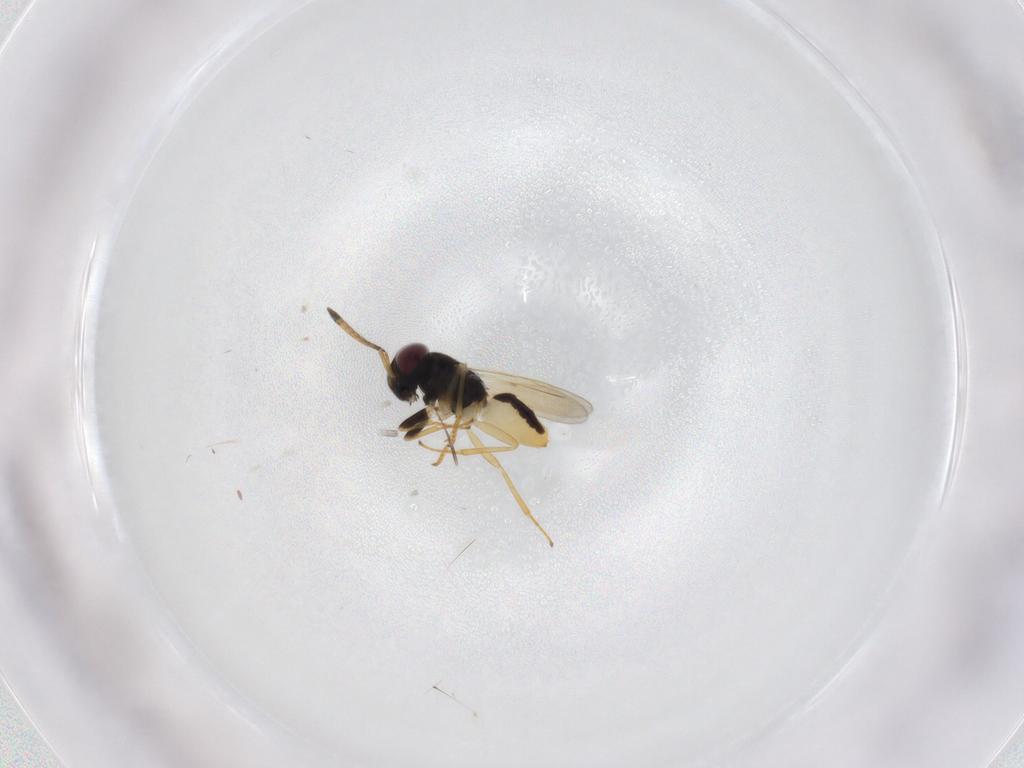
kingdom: Animalia
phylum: Arthropoda
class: Insecta
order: Hymenoptera
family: Encyrtidae
